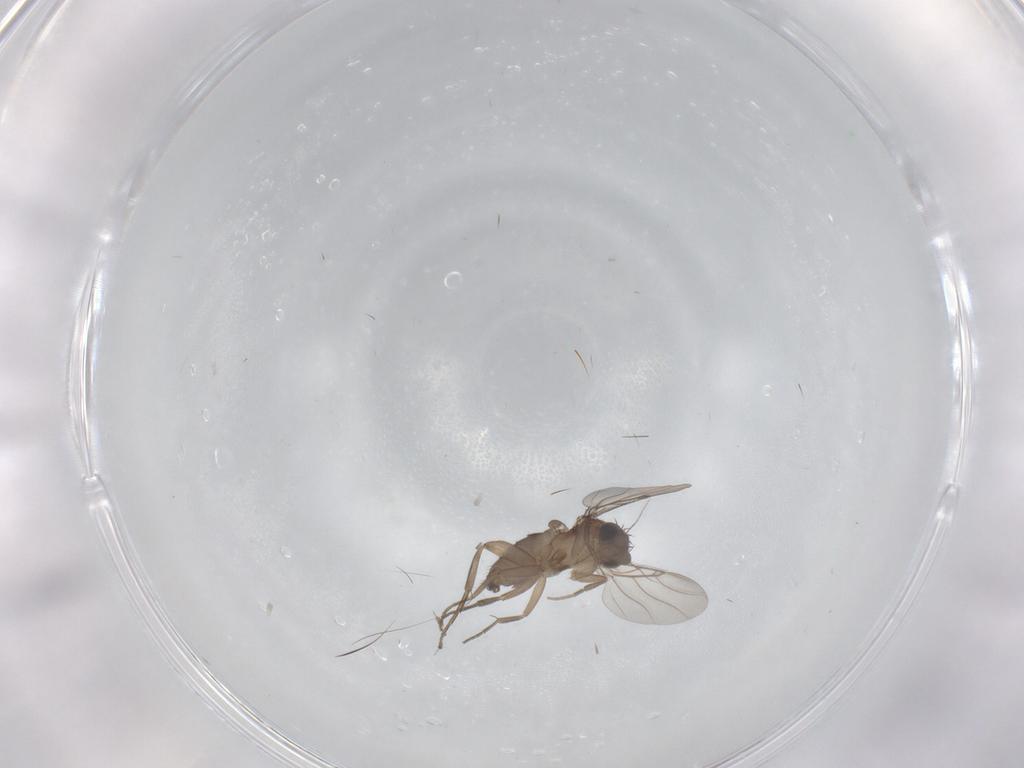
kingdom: Animalia
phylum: Arthropoda
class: Insecta
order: Diptera
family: Phoridae
